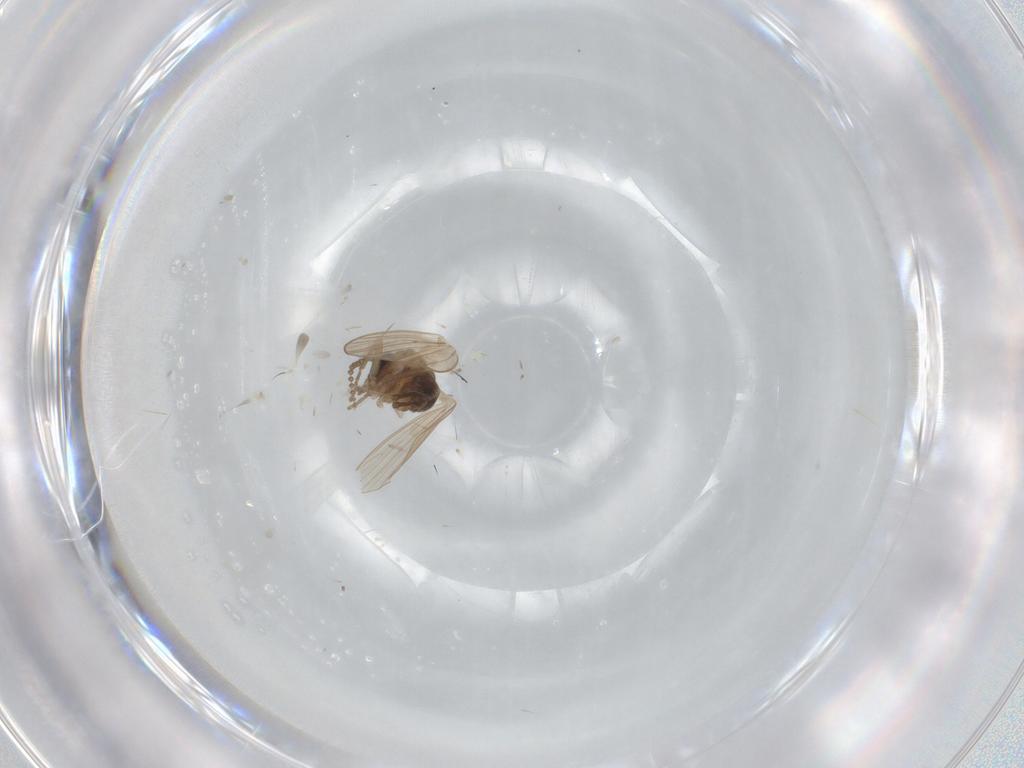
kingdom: Animalia
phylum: Arthropoda
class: Insecta
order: Diptera
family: Psychodidae
